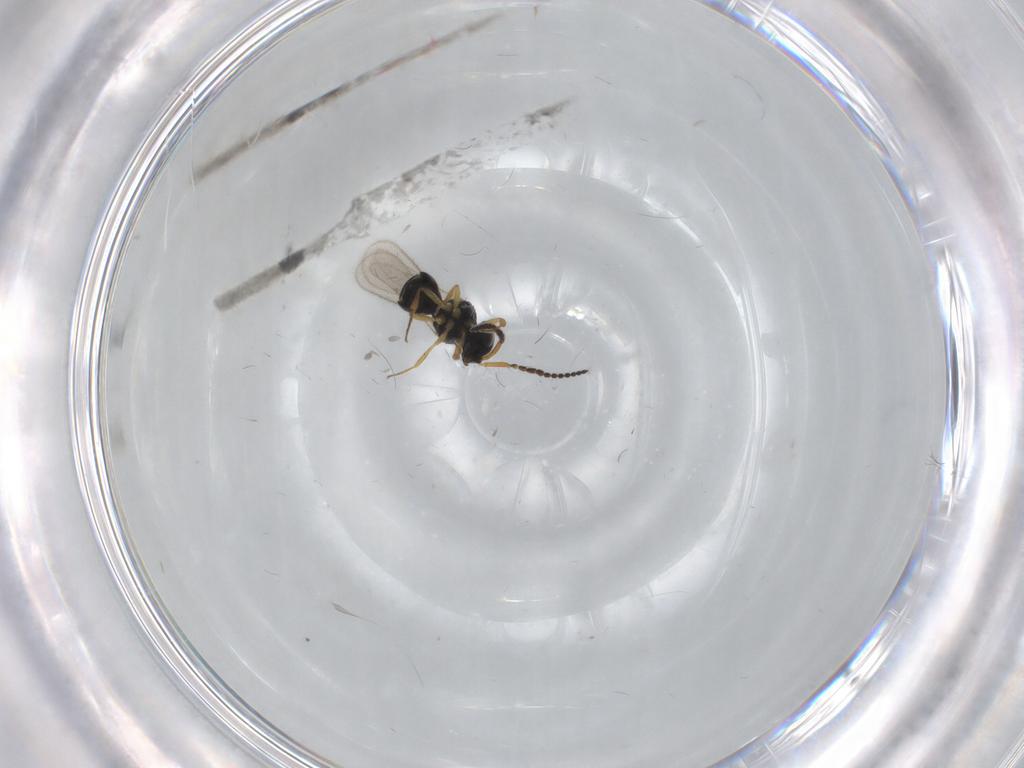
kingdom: Animalia
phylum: Arthropoda
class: Insecta
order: Hymenoptera
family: Scelionidae
